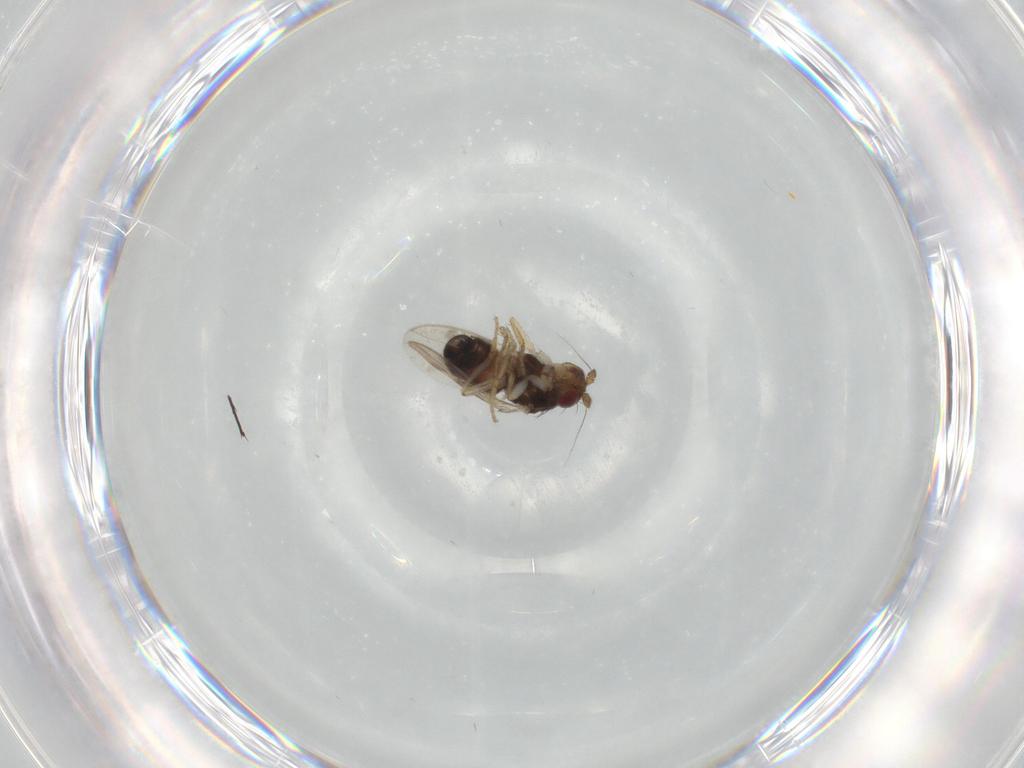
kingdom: Animalia
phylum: Arthropoda
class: Insecta
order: Diptera
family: Sphaeroceridae
